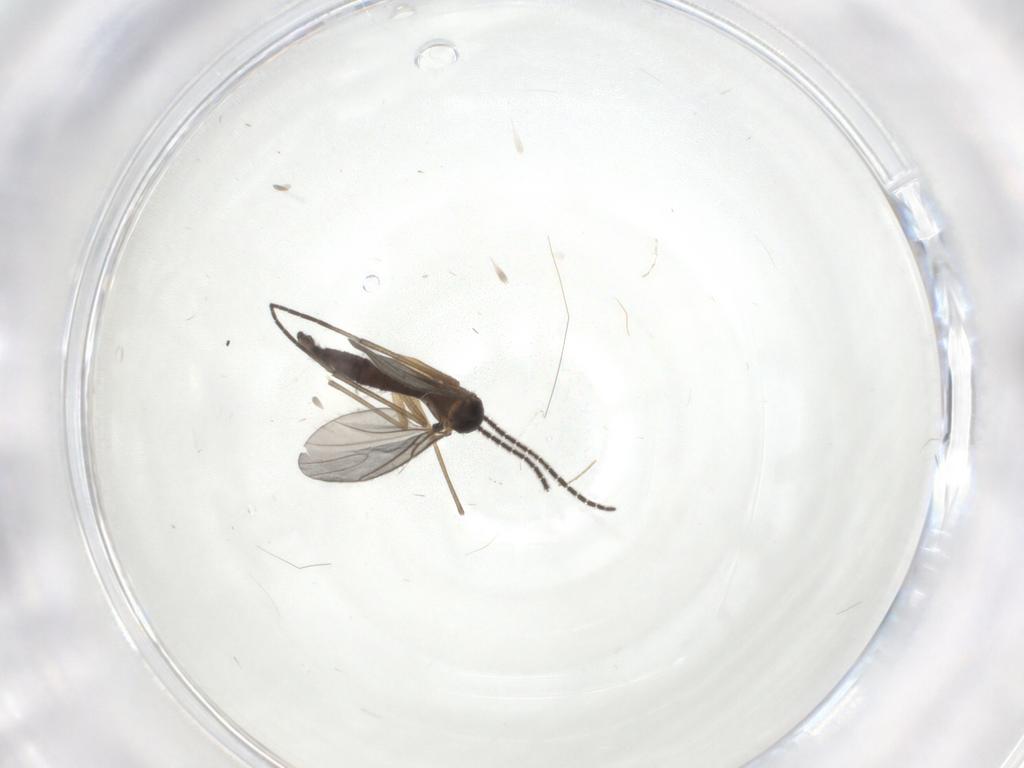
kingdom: Animalia
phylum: Arthropoda
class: Insecta
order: Diptera
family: Sciaridae
